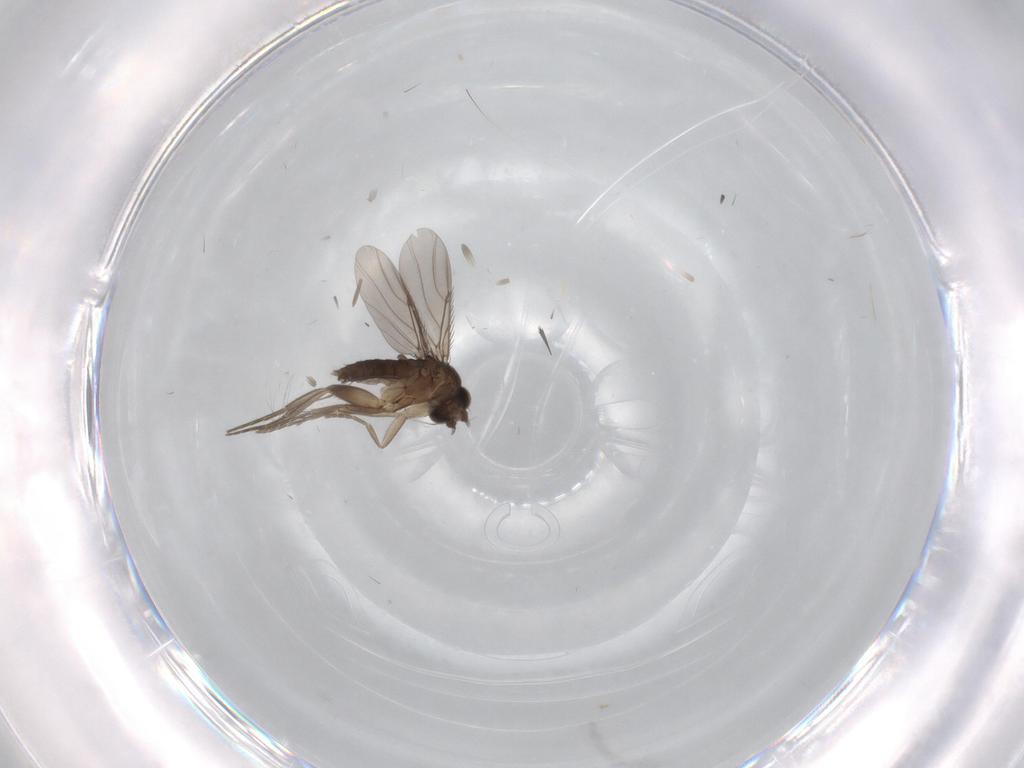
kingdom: Animalia
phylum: Arthropoda
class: Insecta
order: Diptera
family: Phoridae
